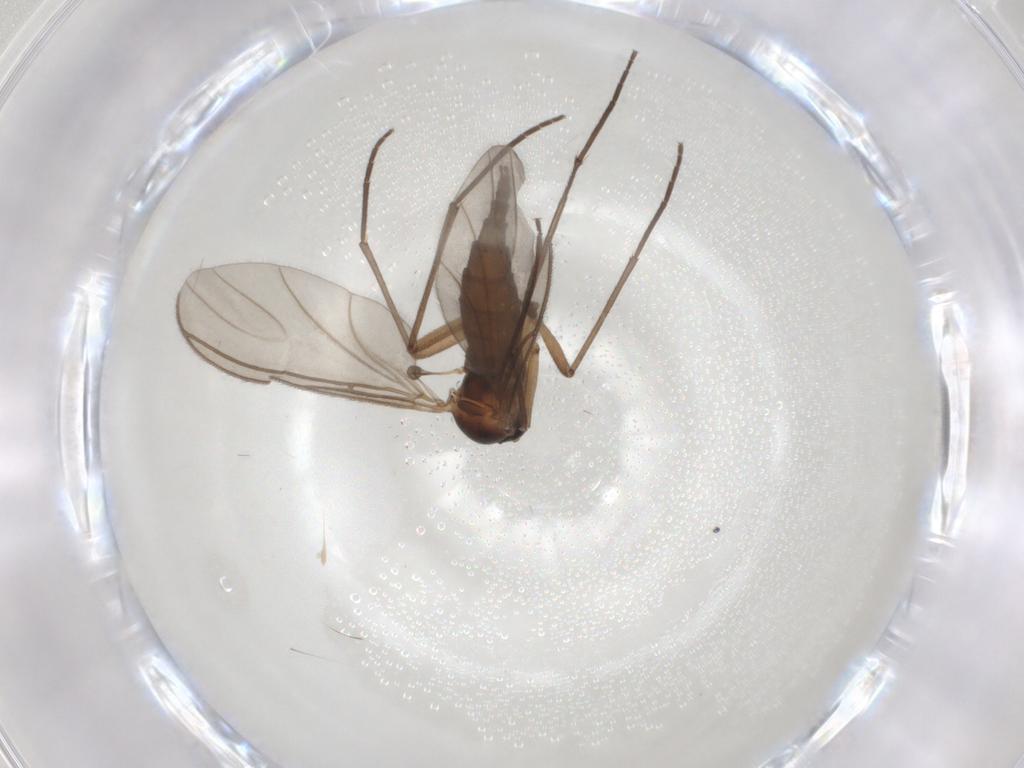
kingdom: Animalia
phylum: Arthropoda
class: Insecta
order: Diptera
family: Sciaridae
